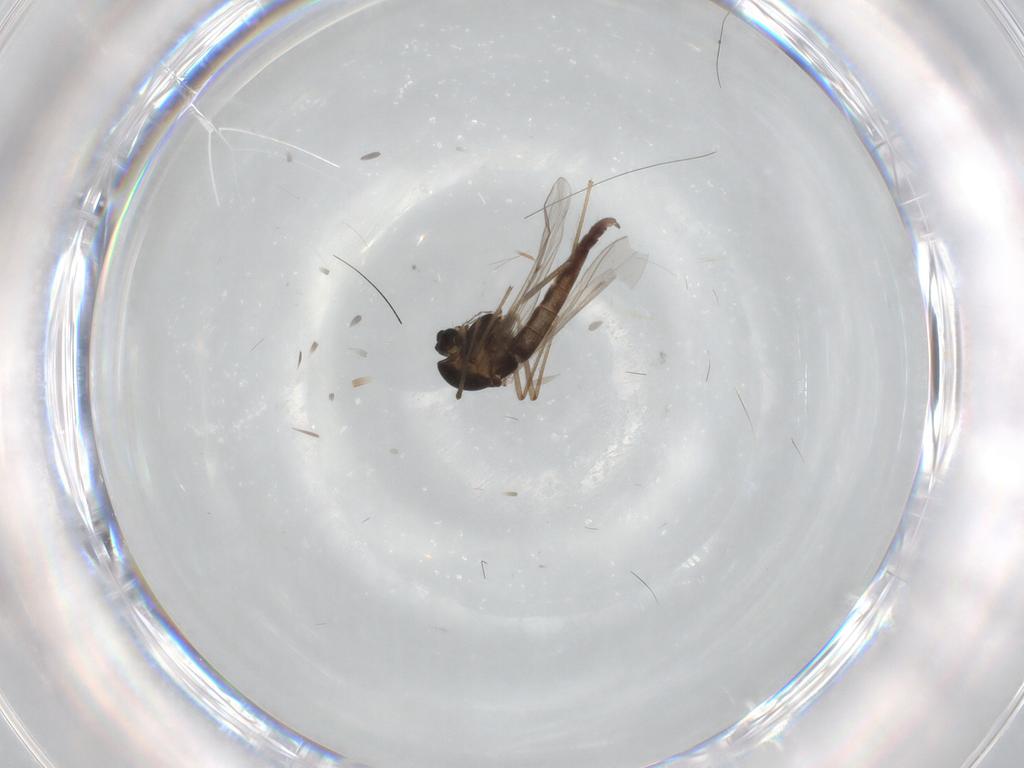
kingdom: Animalia
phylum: Arthropoda
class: Insecta
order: Diptera
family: Chironomidae
